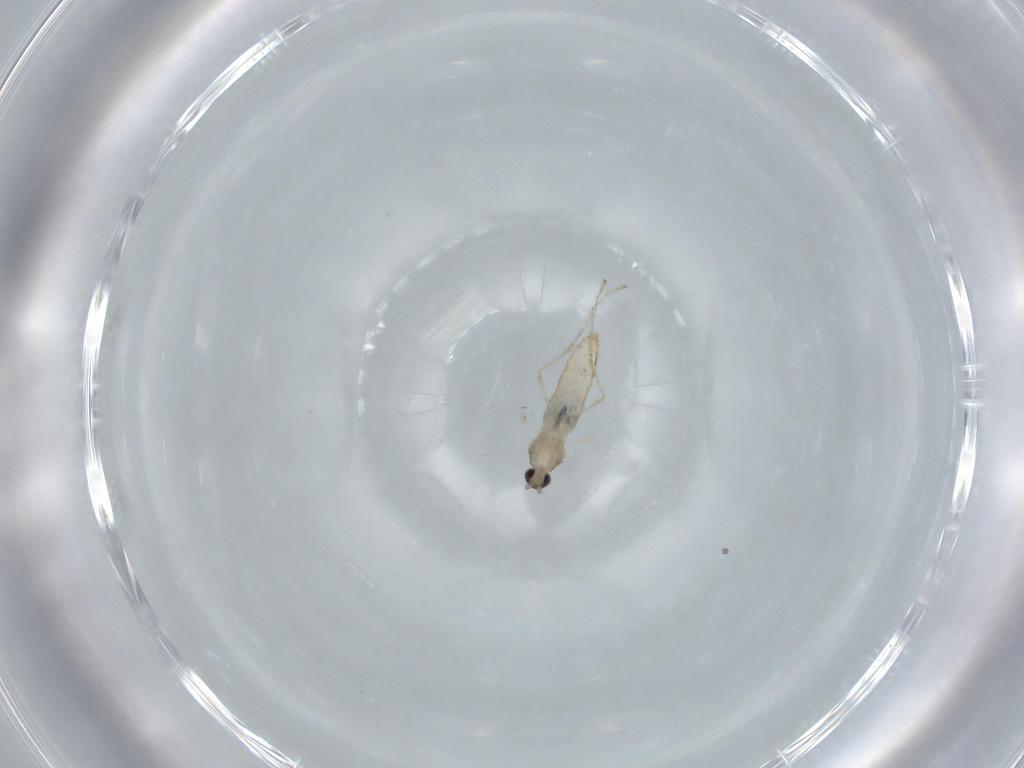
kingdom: Animalia
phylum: Arthropoda
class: Insecta
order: Diptera
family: Cecidomyiidae
